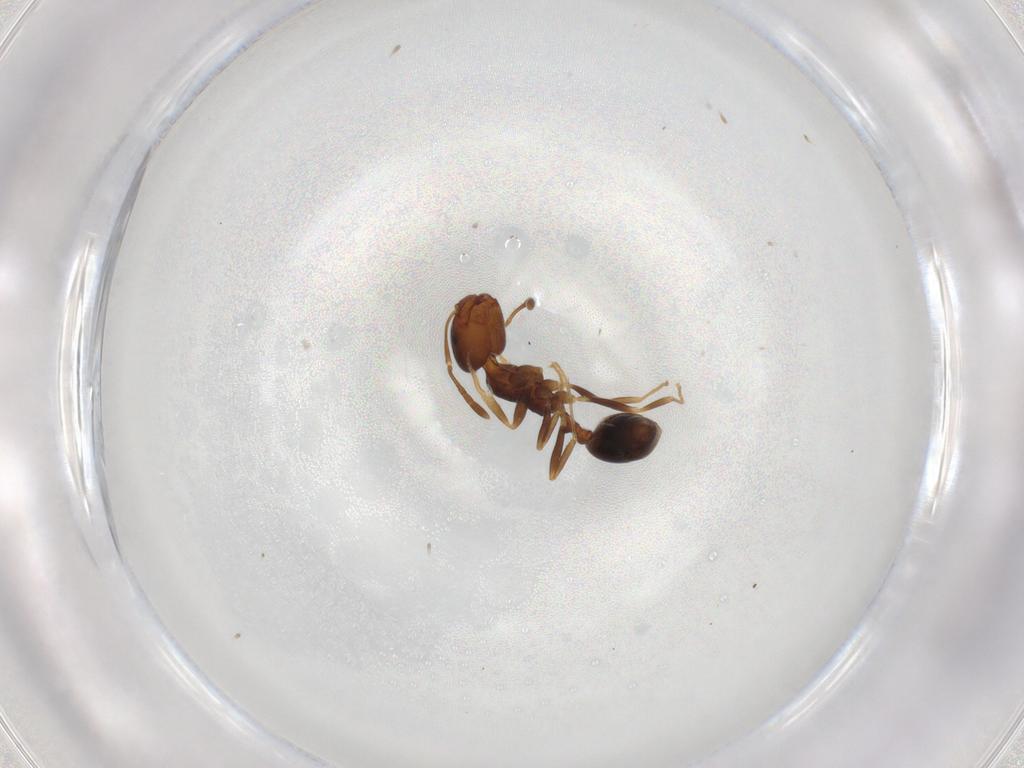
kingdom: Animalia
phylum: Arthropoda
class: Insecta
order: Hymenoptera
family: Formicidae
